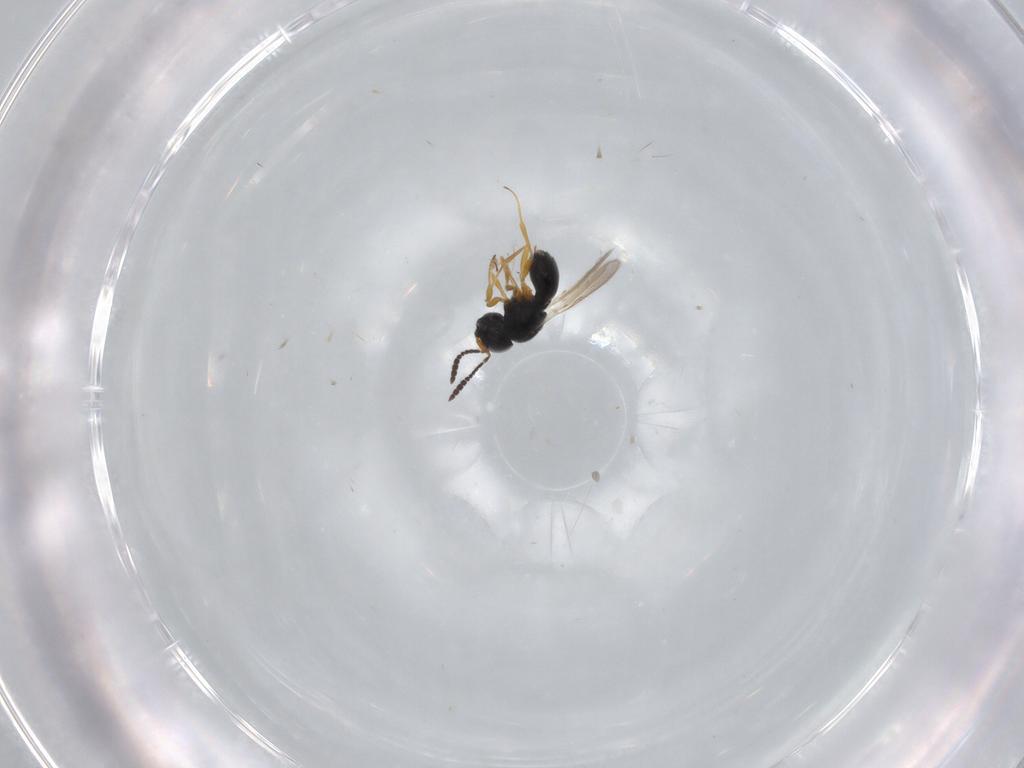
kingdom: Animalia
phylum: Arthropoda
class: Insecta
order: Hymenoptera
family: Scelionidae
